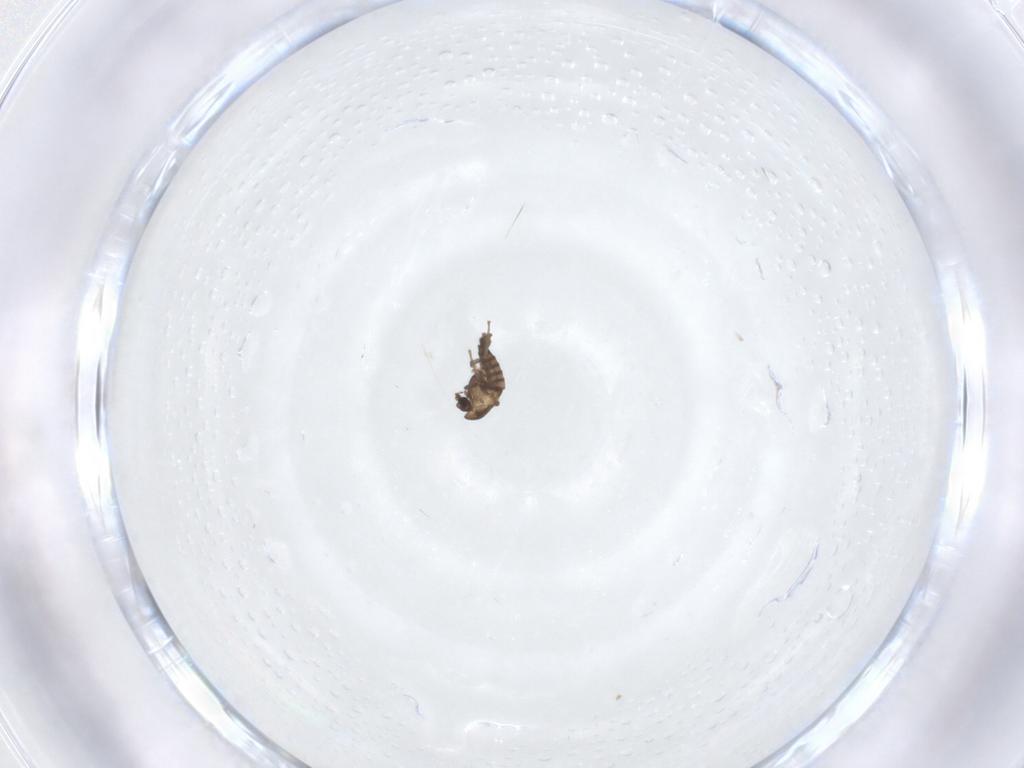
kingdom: Animalia
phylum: Arthropoda
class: Insecta
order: Diptera
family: Chironomidae
